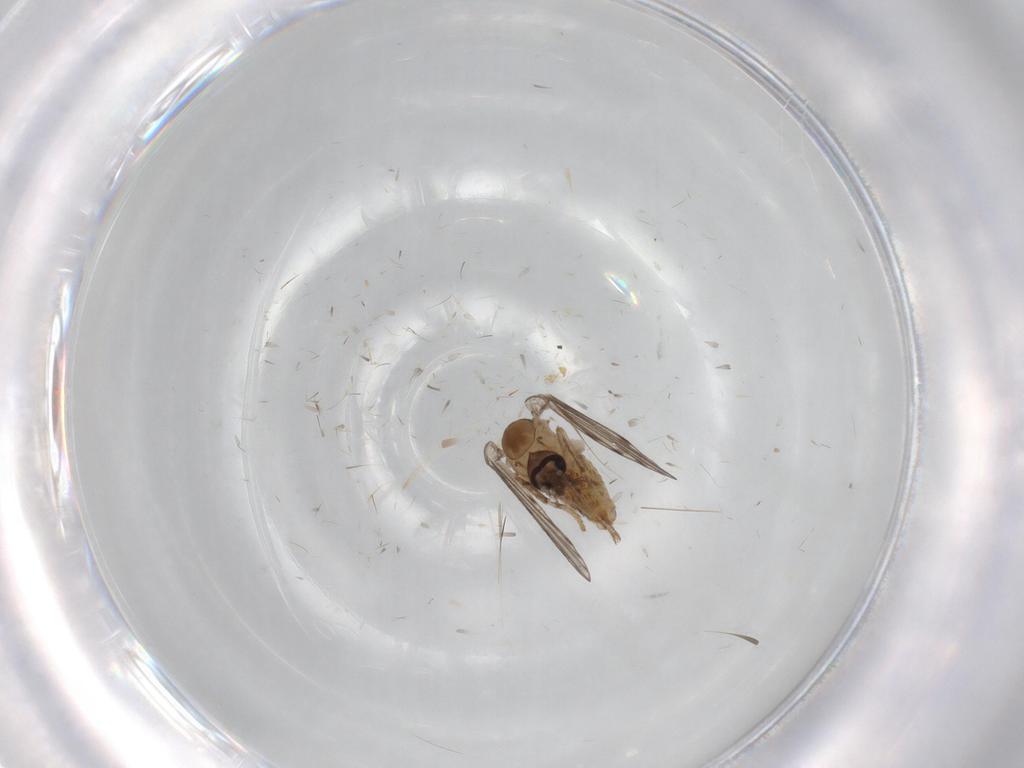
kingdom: Animalia
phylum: Arthropoda
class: Insecta
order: Diptera
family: Psychodidae
